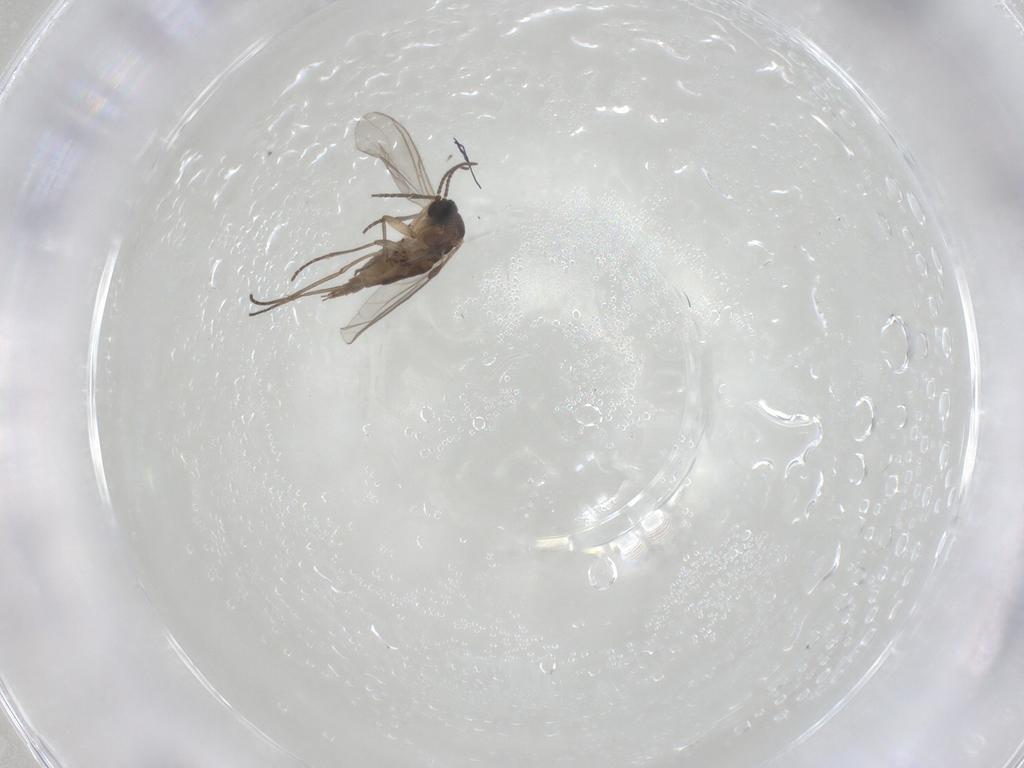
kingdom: Animalia
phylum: Arthropoda
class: Insecta
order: Diptera
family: Sciaridae
